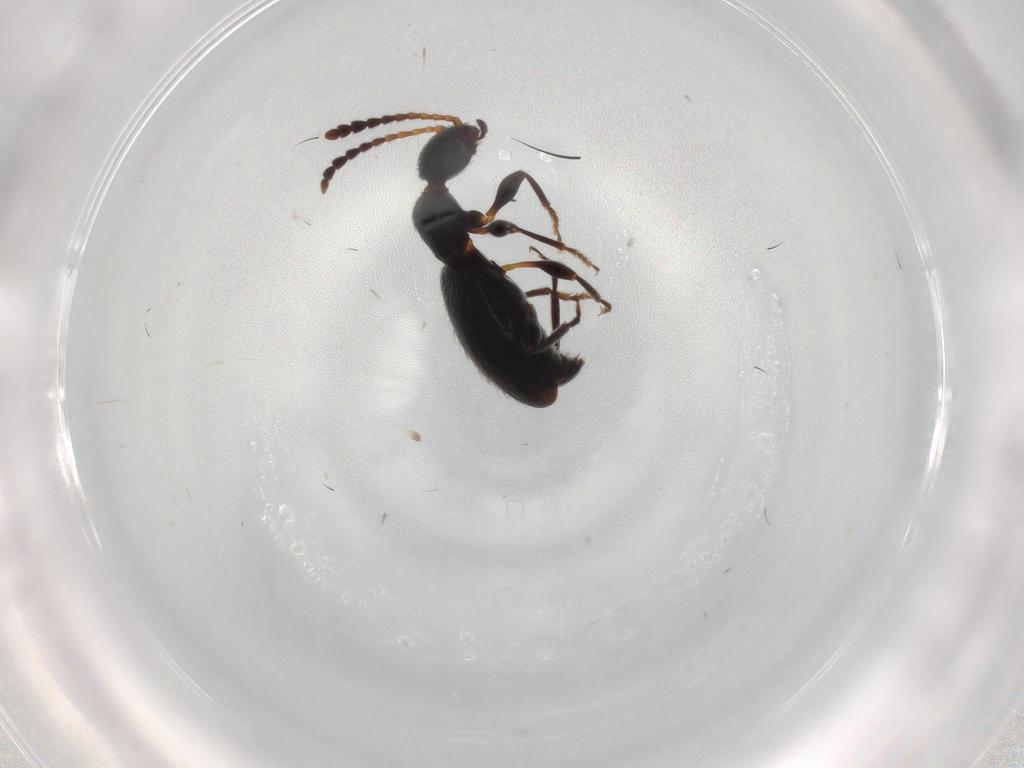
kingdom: Animalia
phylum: Arthropoda
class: Insecta
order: Coleoptera
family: Anthicidae
